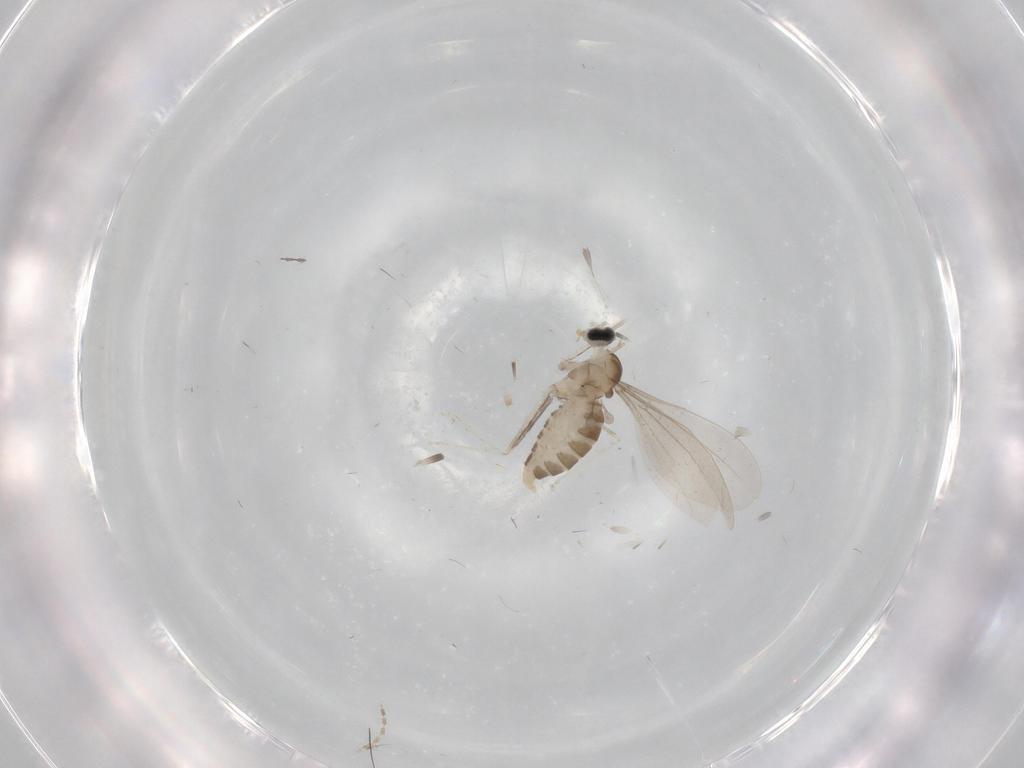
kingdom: Animalia
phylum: Arthropoda
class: Insecta
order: Diptera
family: Cecidomyiidae
